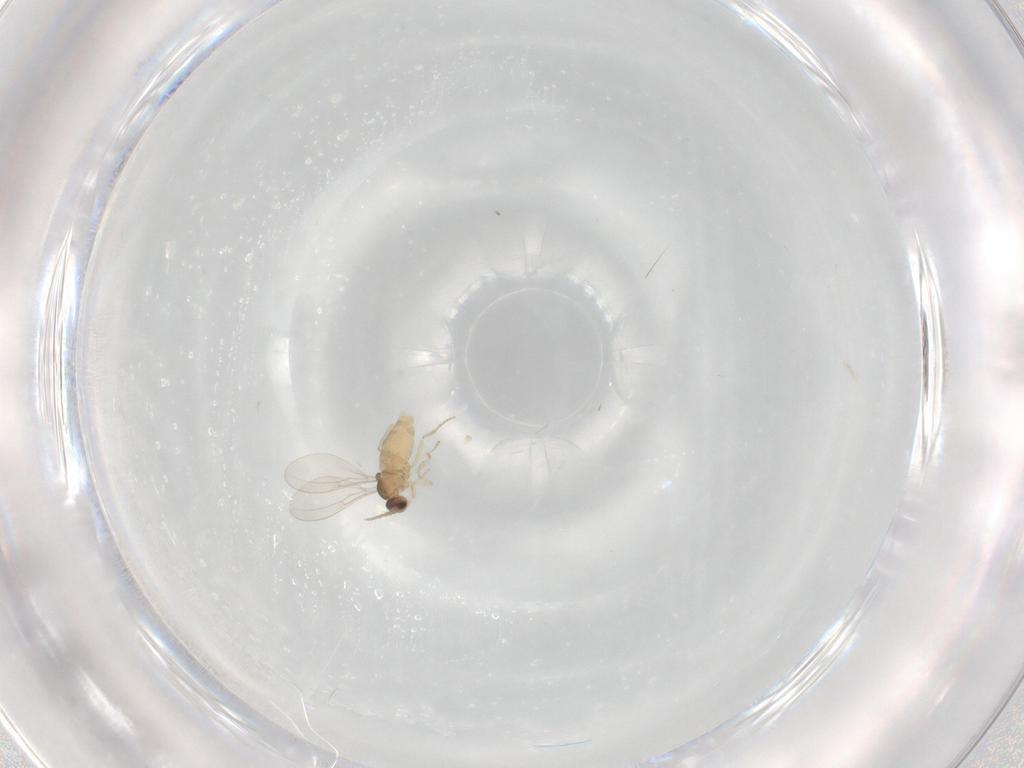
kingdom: Animalia
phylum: Arthropoda
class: Insecta
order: Diptera
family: Cecidomyiidae
